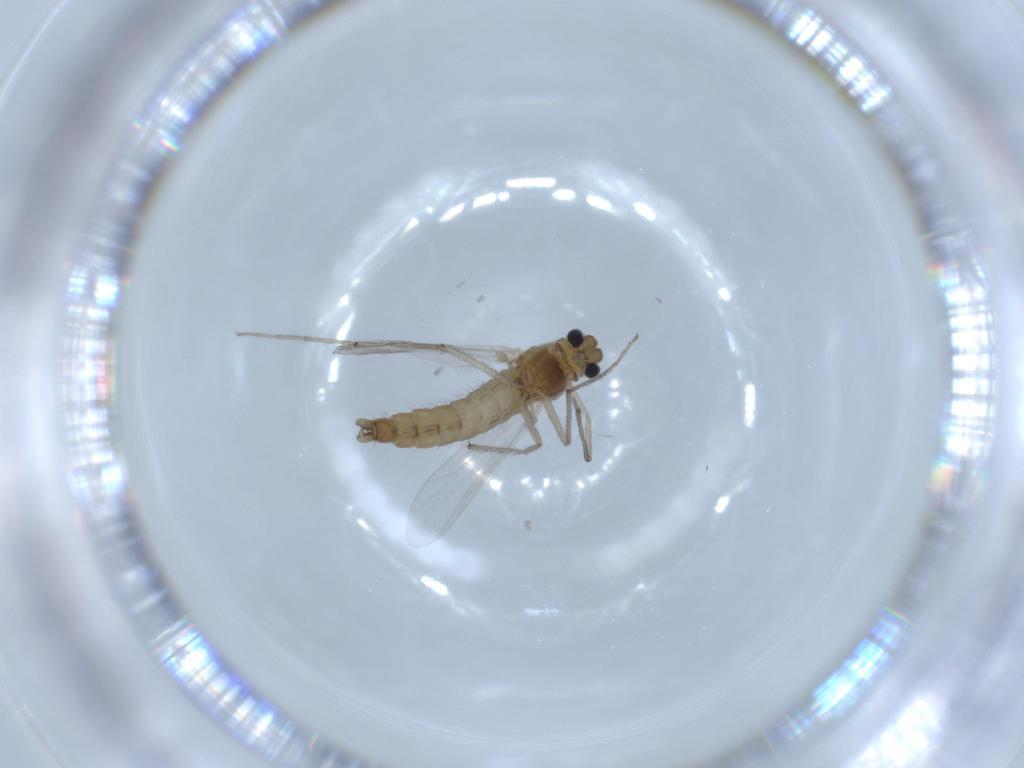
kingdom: Animalia
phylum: Arthropoda
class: Insecta
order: Diptera
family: Chironomidae
